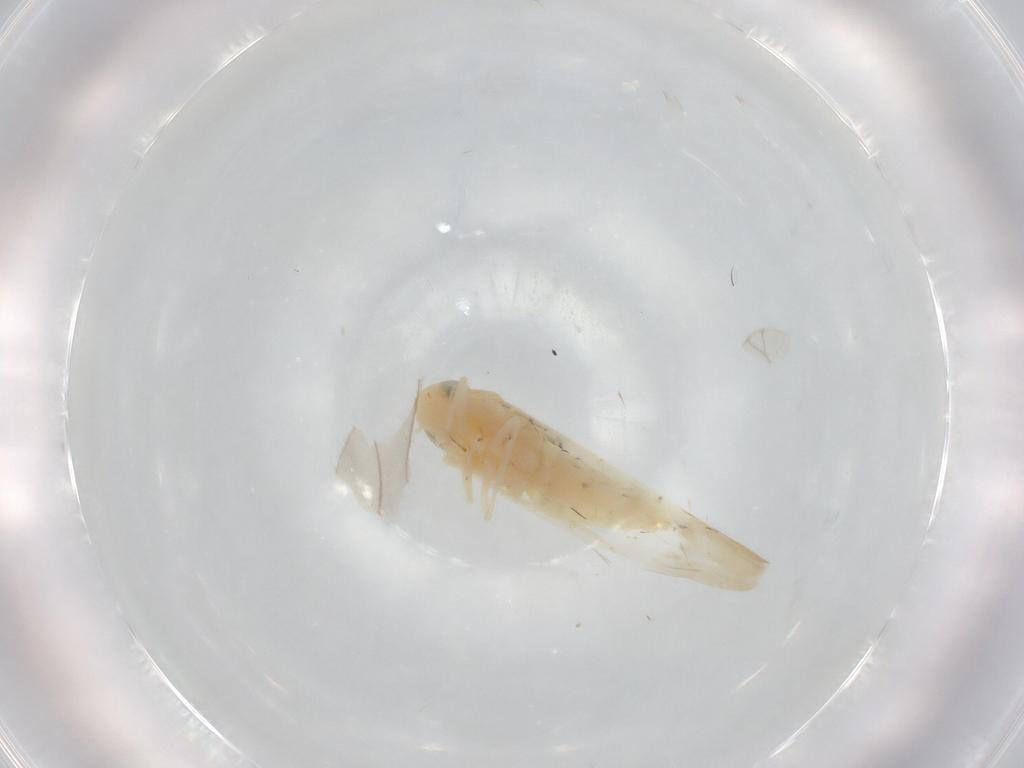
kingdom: Animalia
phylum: Arthropoda
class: Insecta
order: Hemiptera
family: Cicadellidae
